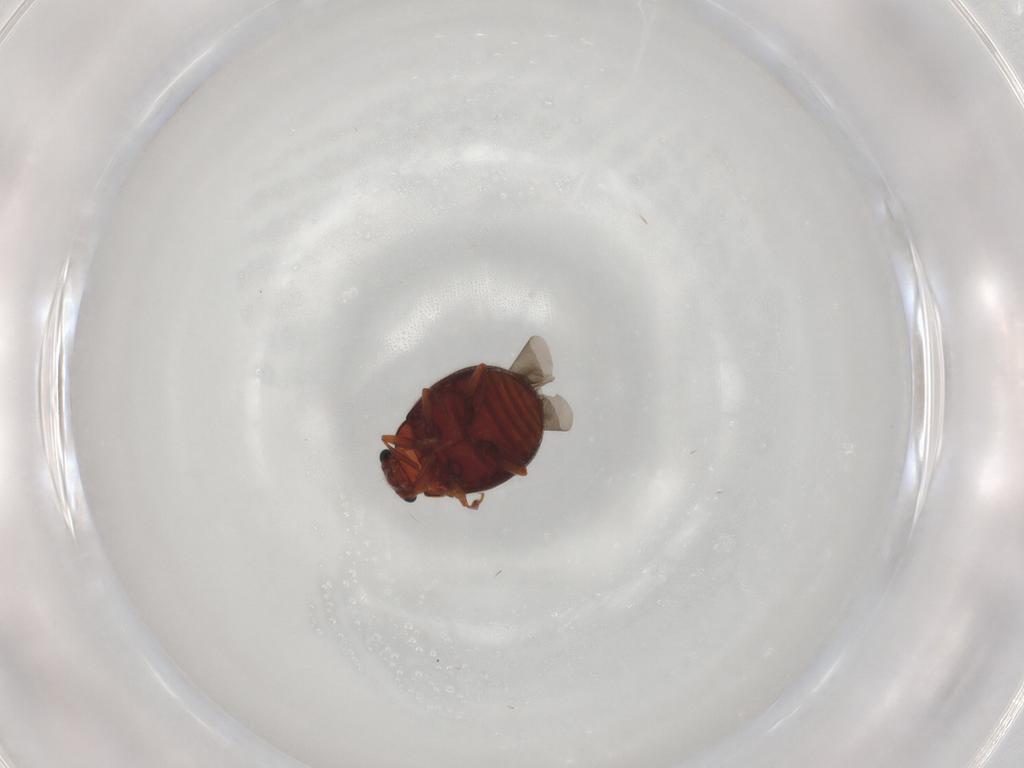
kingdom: Animalia
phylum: Arthropoda
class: Insecta
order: Coleoptera
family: Sphindidae
